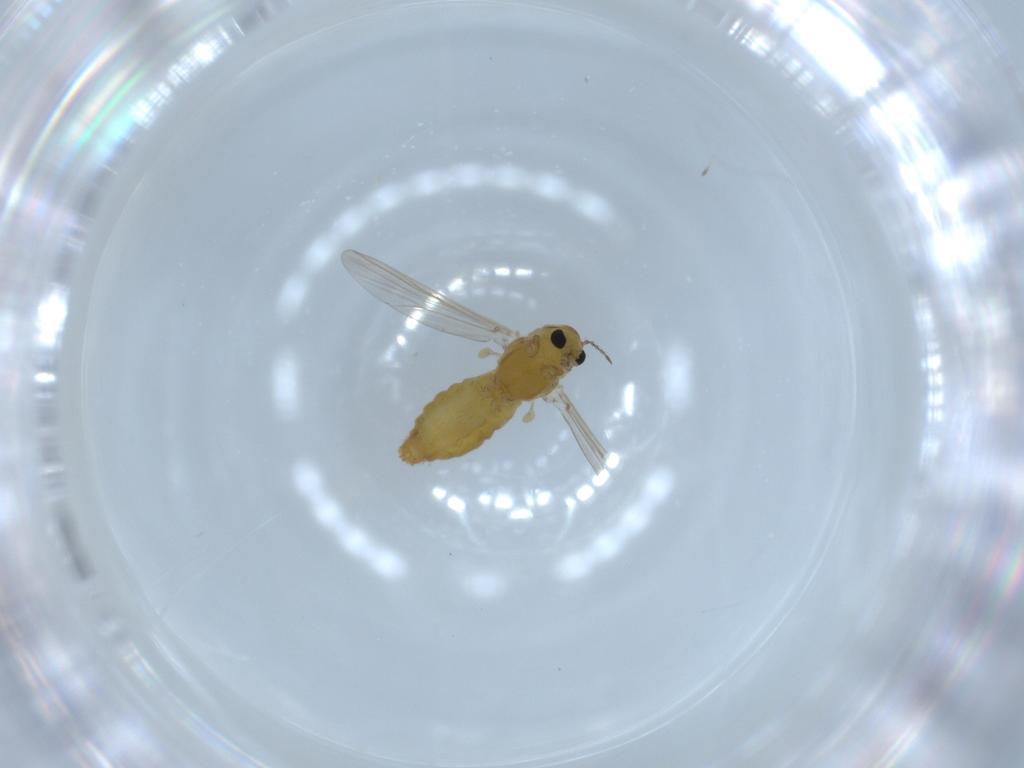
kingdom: Animalia
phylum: Arthropoda
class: Insecta
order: Diptera
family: Chironomidae
